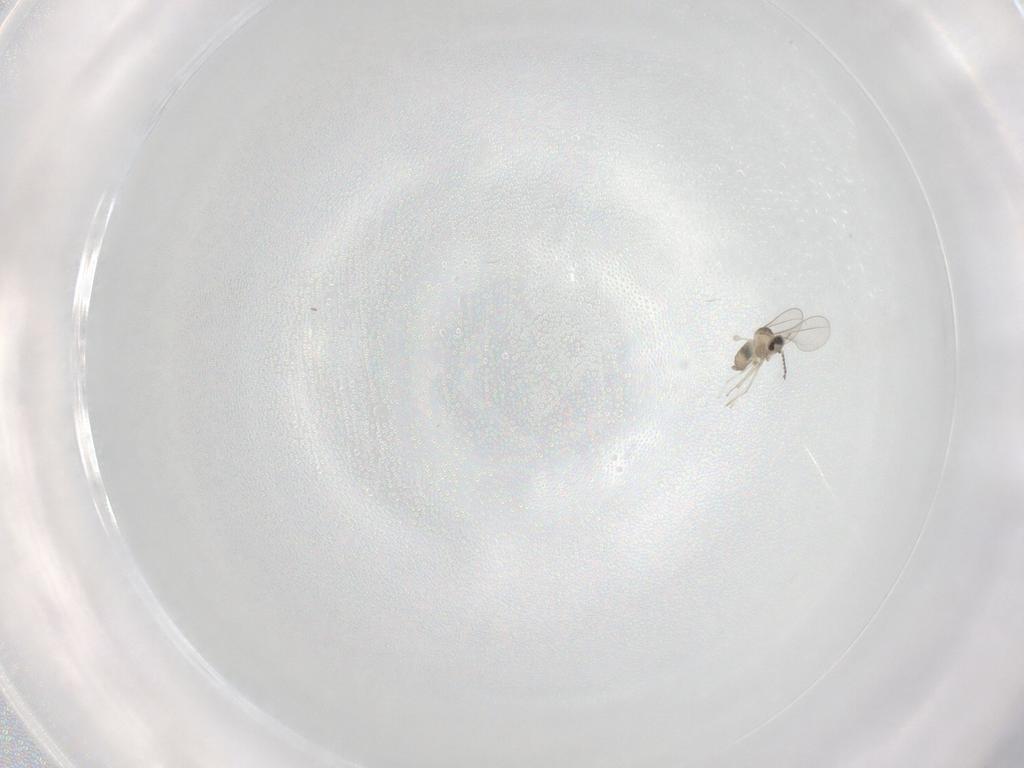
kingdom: Animalia
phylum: Arthropoda
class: Insecta
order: Diptera
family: Cecidomyiidae
